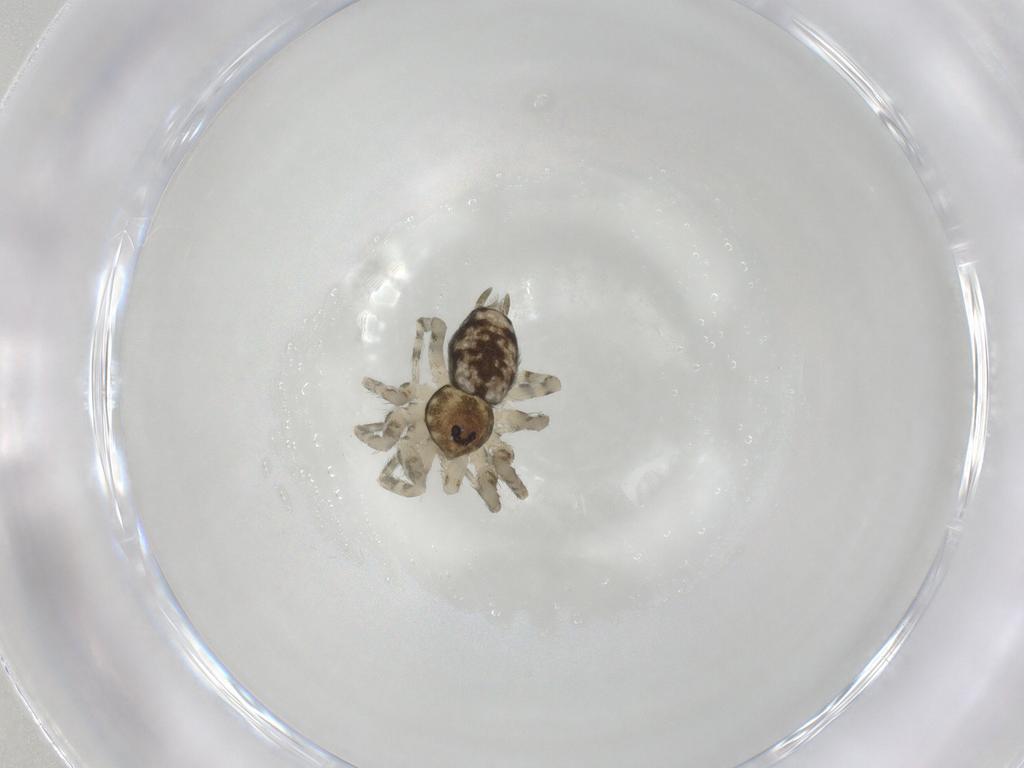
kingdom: Animalia
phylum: Arthropoda
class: Arachnida
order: Araneae
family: Oecobiidae
